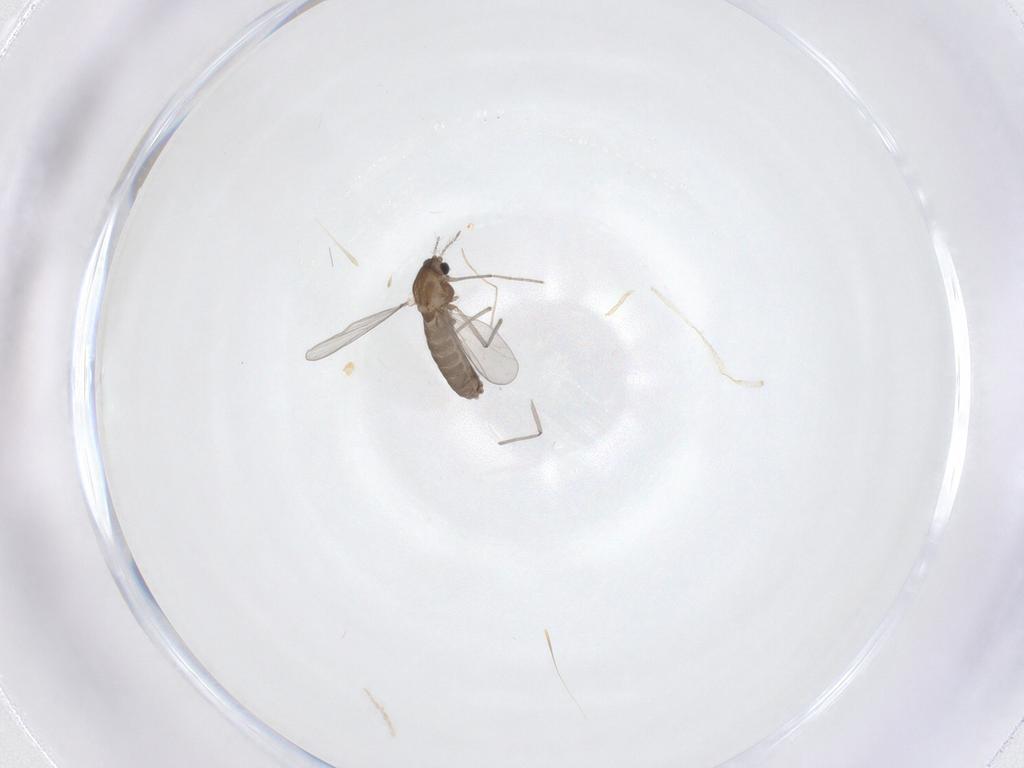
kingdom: Animalia
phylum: Arthropoda
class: Insecta
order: Diptera
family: Chironomidae
